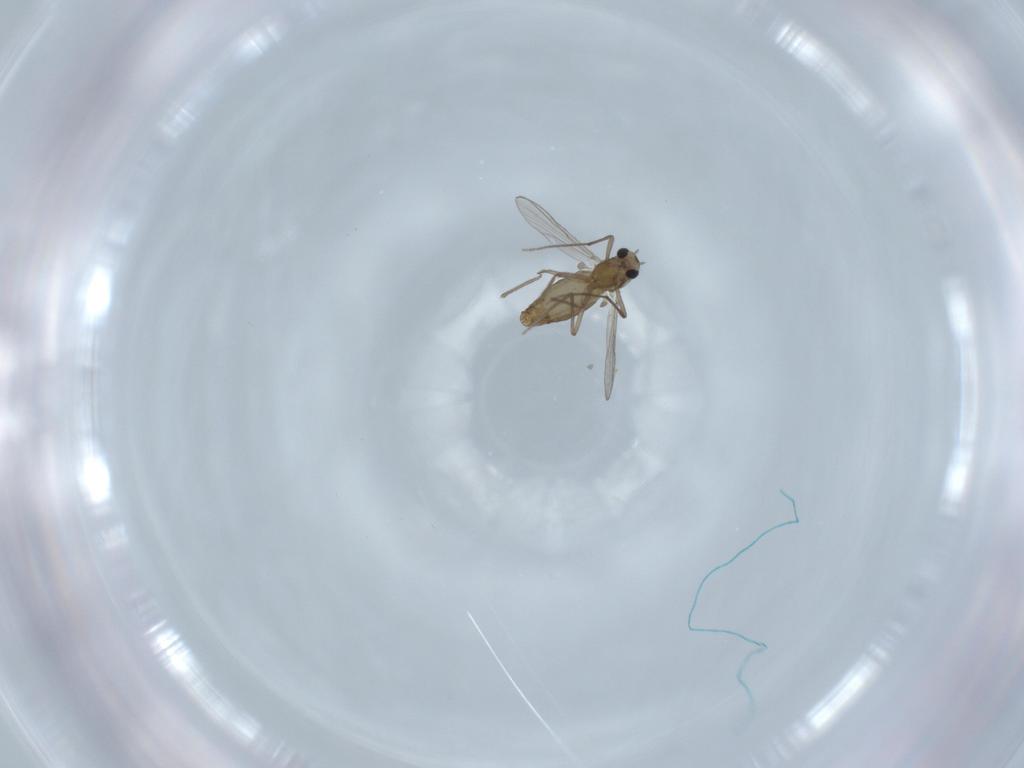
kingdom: Animalia
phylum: Arthropoda
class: Insecta
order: Diptera
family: Chironomidae
